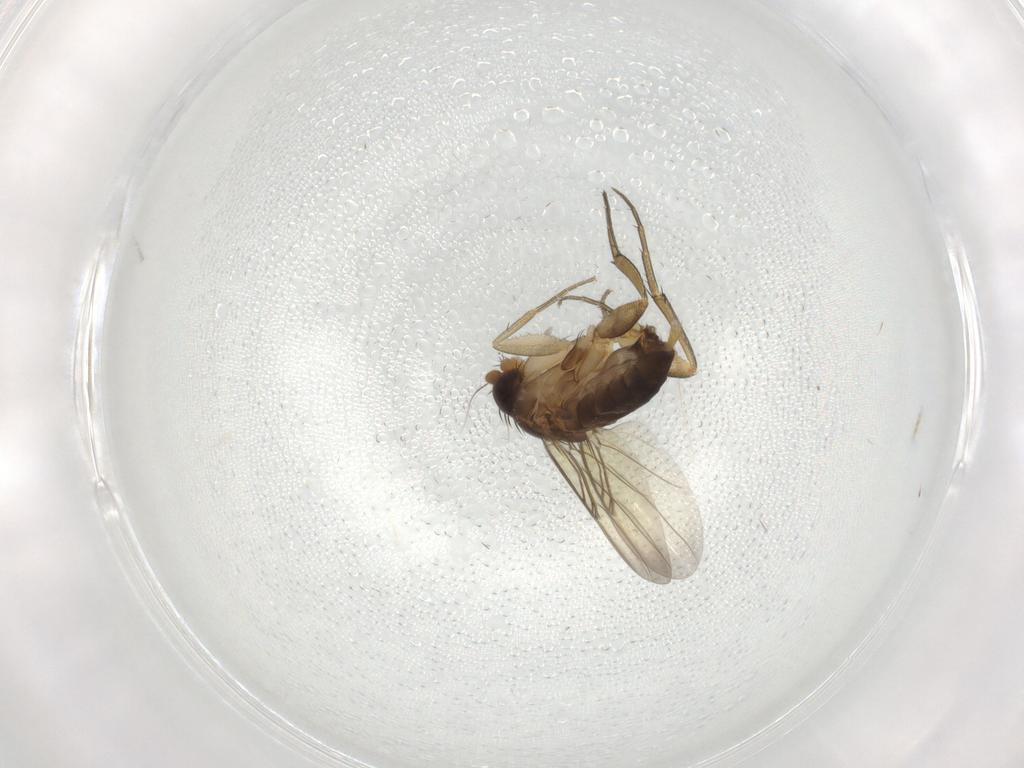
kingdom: Animalia
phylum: Arthropoda
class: Insecta
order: Diptera
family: Phoridae
